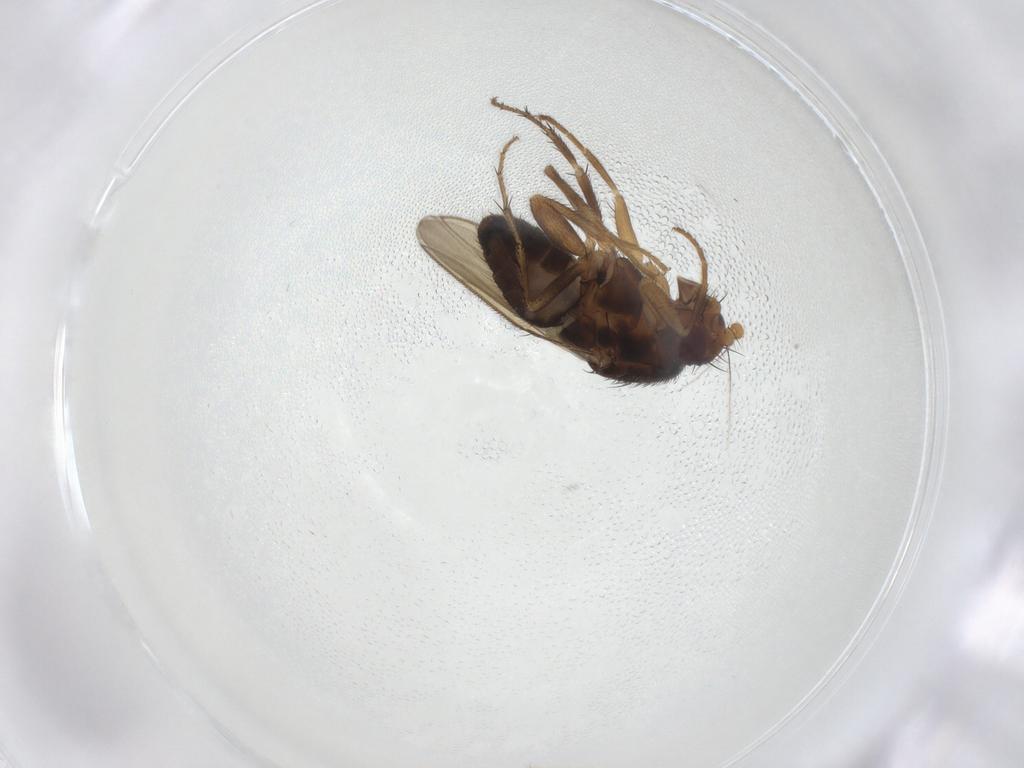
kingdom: Animalia
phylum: Arthropoda
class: Insecta
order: Diptera
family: Sphaeroceridae
